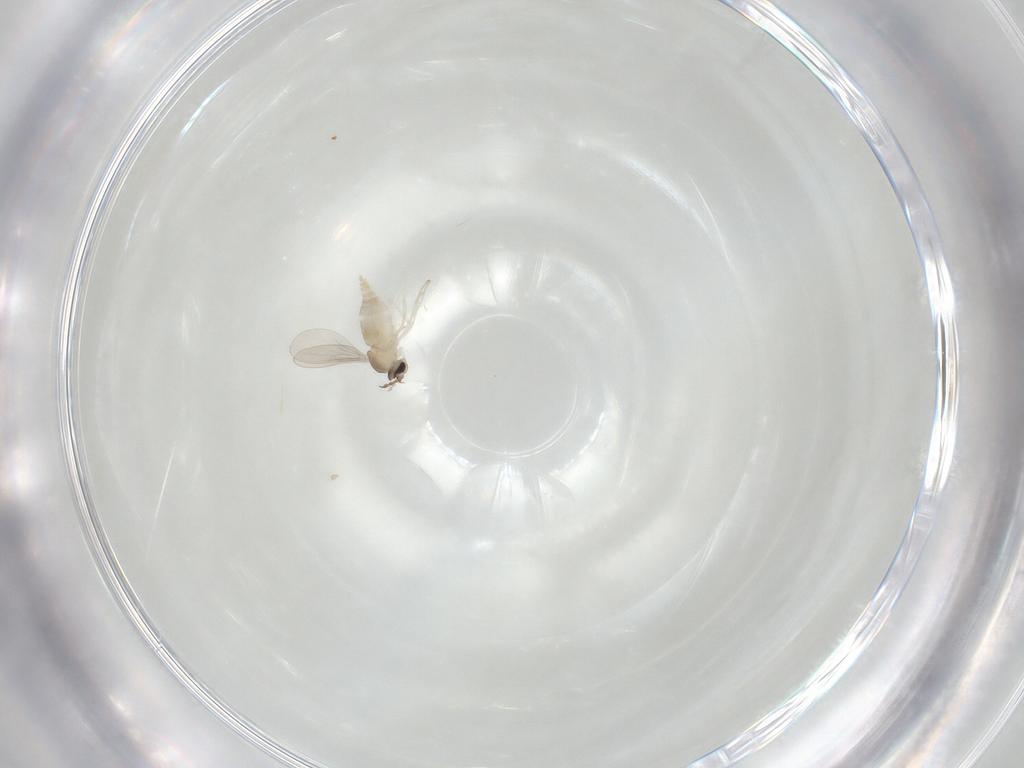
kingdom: Animalia
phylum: Arthropoda
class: Insecta
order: Diptera
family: Cecidomyiidae
